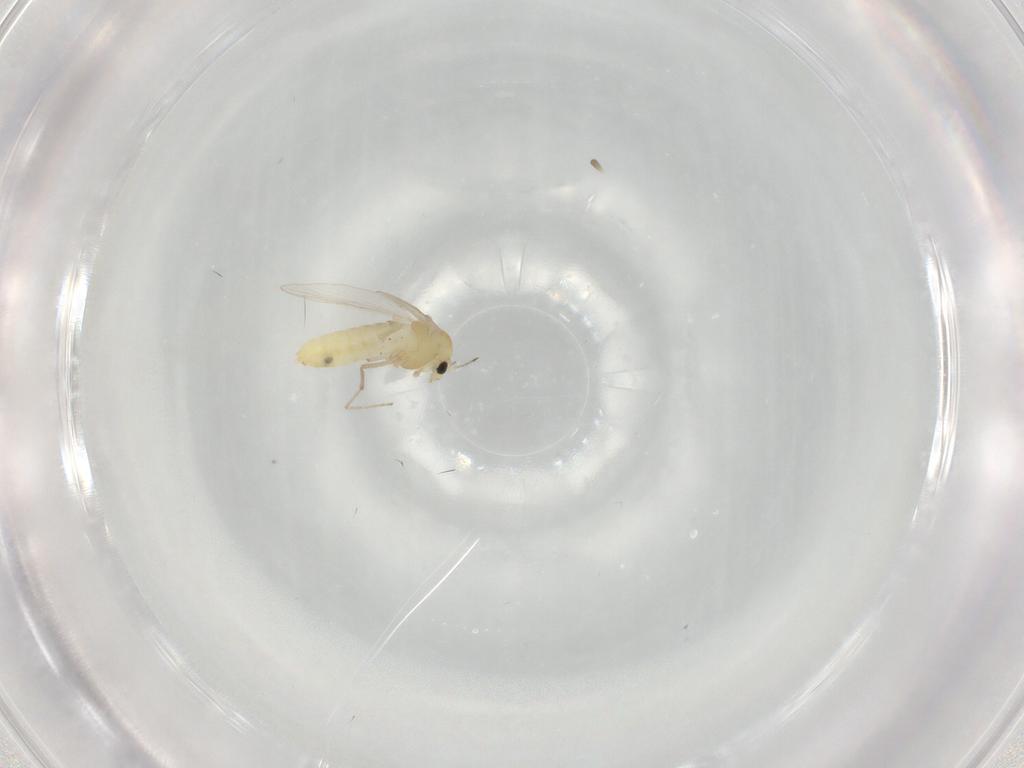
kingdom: Animalia
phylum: Arthropoda
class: Insecta
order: Diptera
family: Chironomidae
